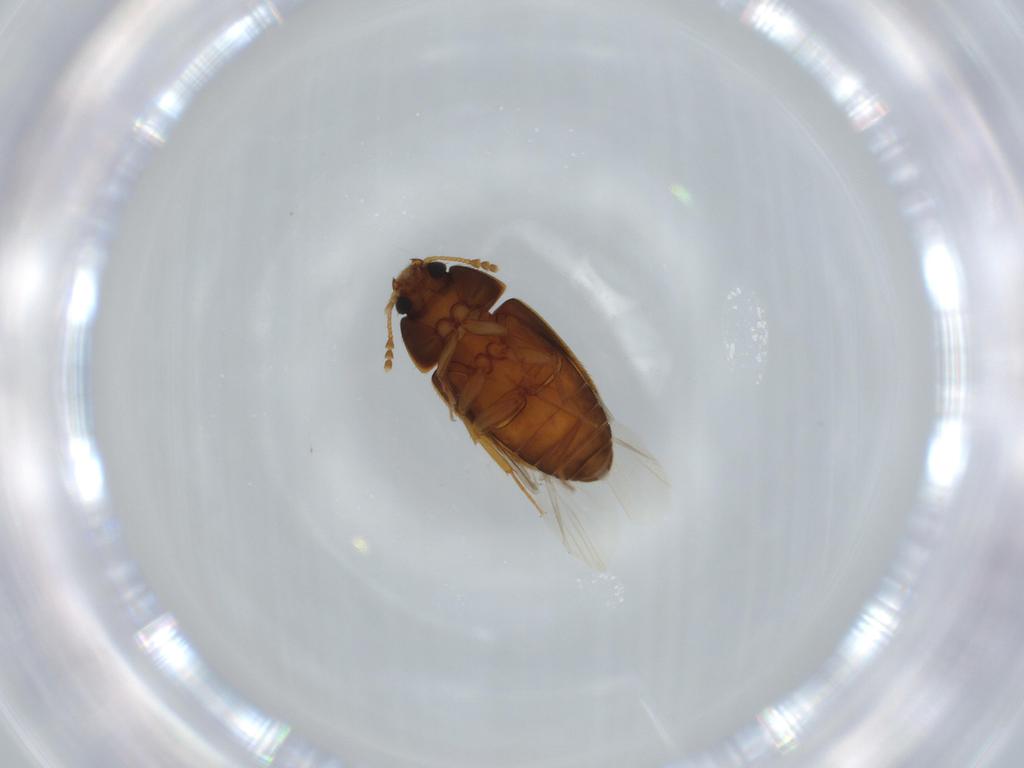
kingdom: Animalia
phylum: Arthropoda
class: Insecta
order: Coleoptera
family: Mycetophagidae
